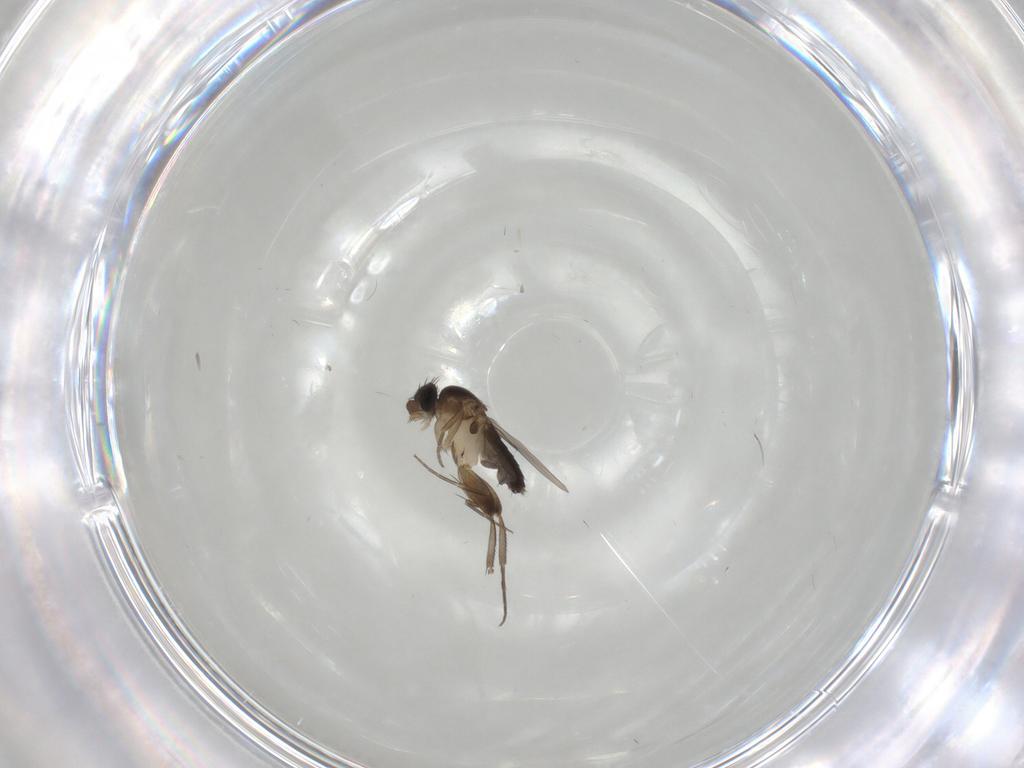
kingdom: Animalia
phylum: Arthropoda
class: Insecta
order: Diptera
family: Phoridae
